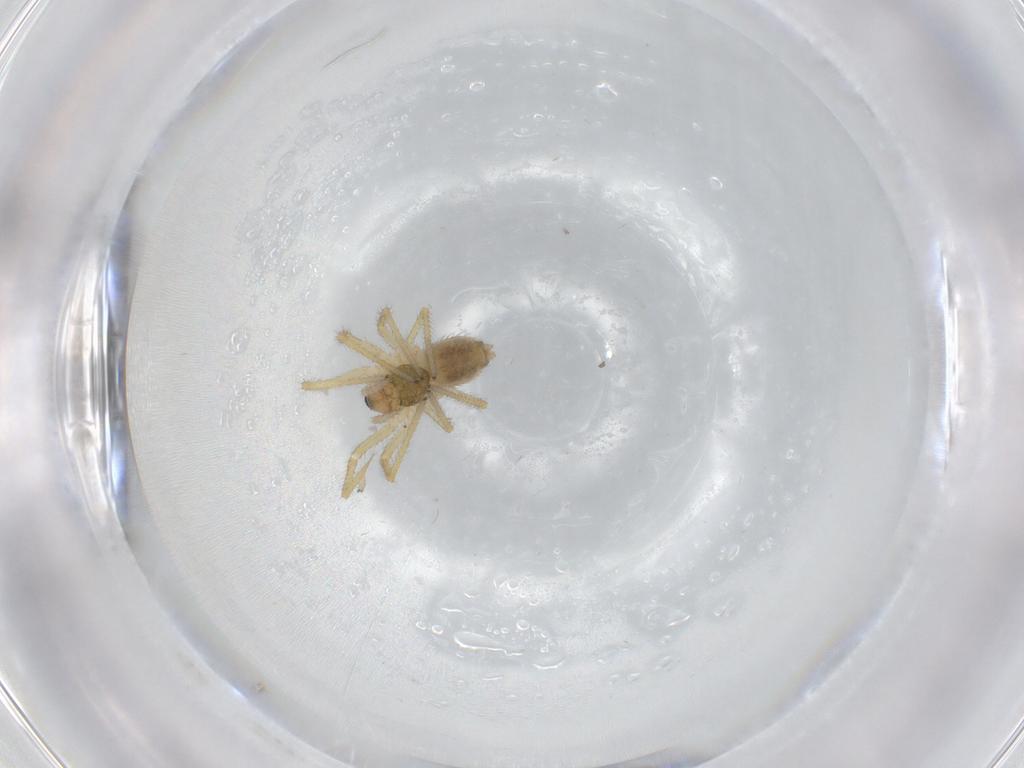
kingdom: Animalia
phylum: Arthropoda
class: Arachnida
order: Araneae
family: Linyphiidae
